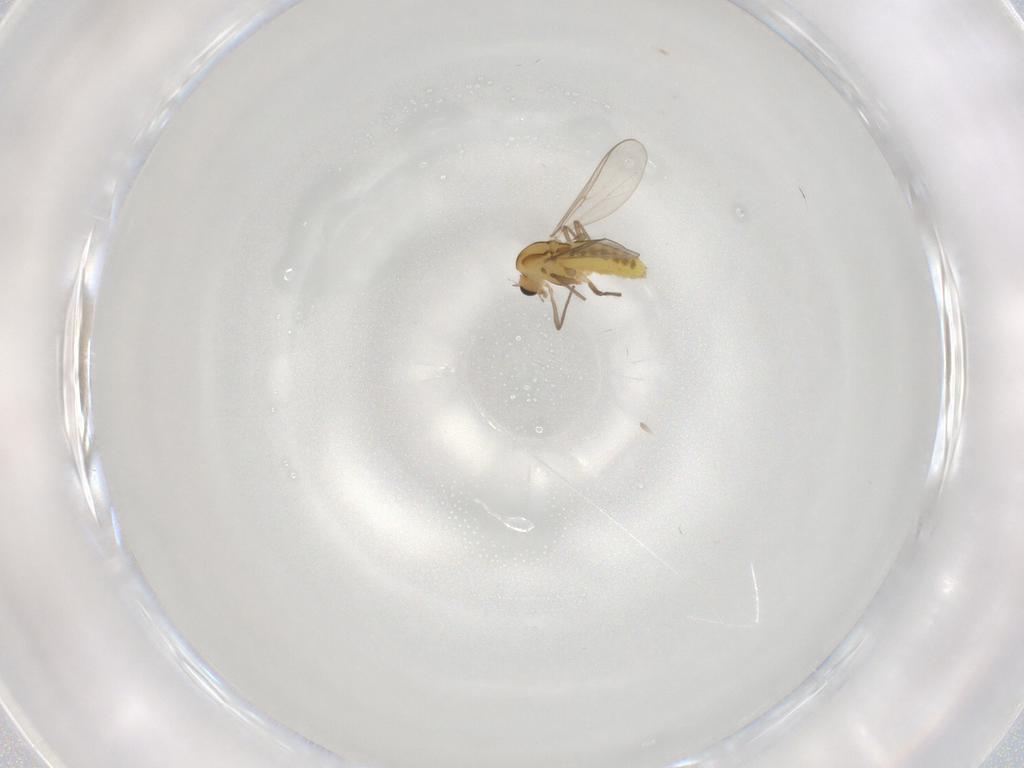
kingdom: Animalia
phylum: Arthropoda
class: Insecta
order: Diptera
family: Chironomidae
